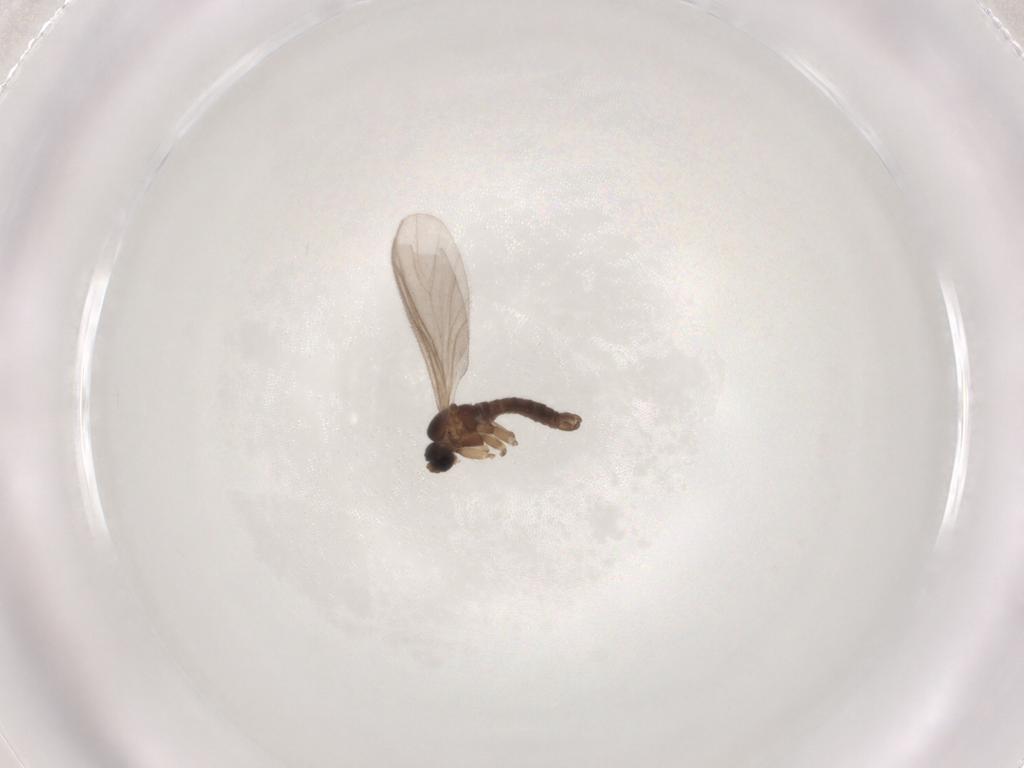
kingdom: Animalia
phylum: Arthropoda
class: Insecta
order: Diptera
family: Sciaridae
